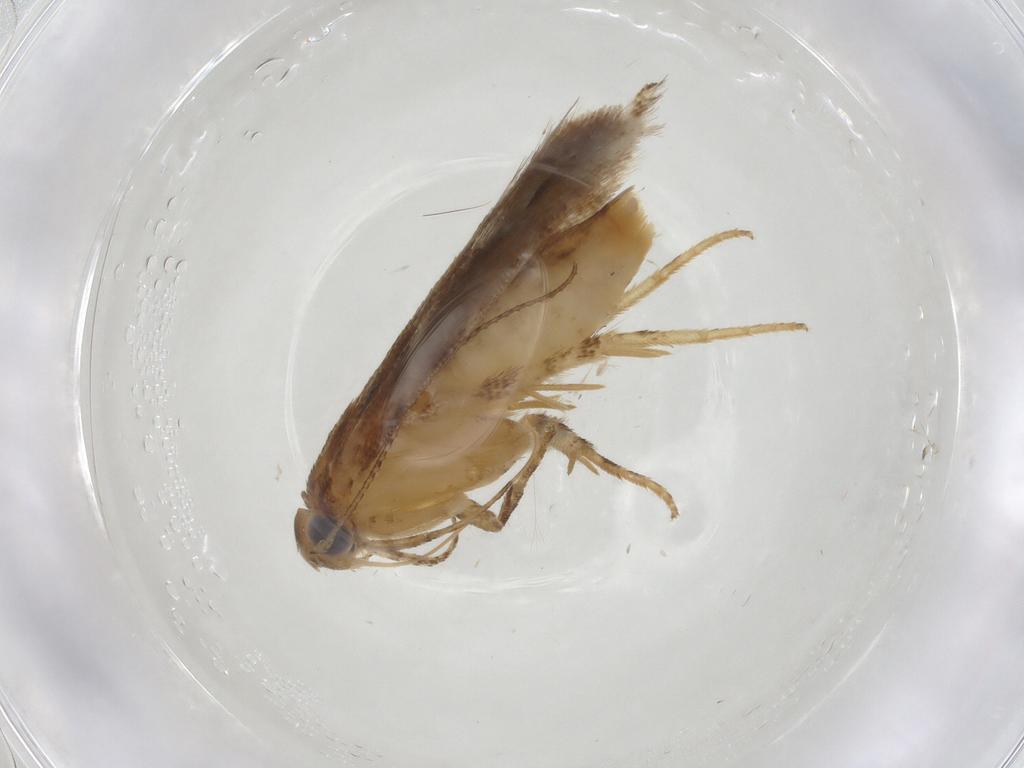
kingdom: Animalia
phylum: Arthropoda
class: Insecta
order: Lepidoptera
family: Gelechiidae
